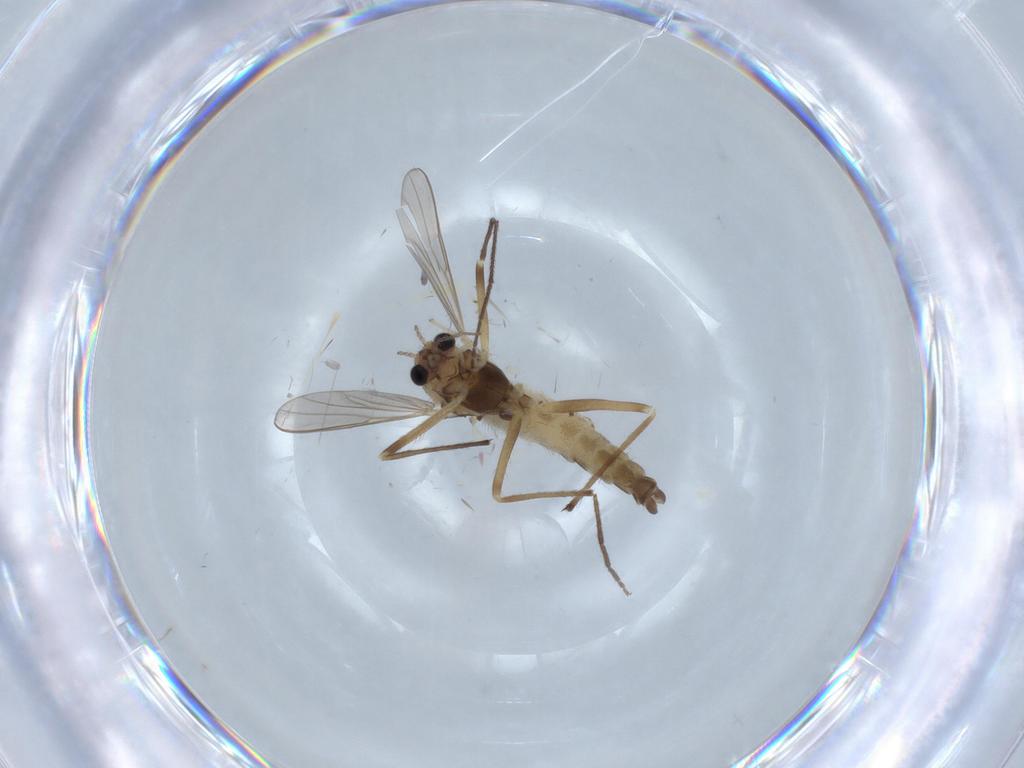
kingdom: Animalia
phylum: Arthropoda
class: Insecta
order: Diptera
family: Chironomidae
